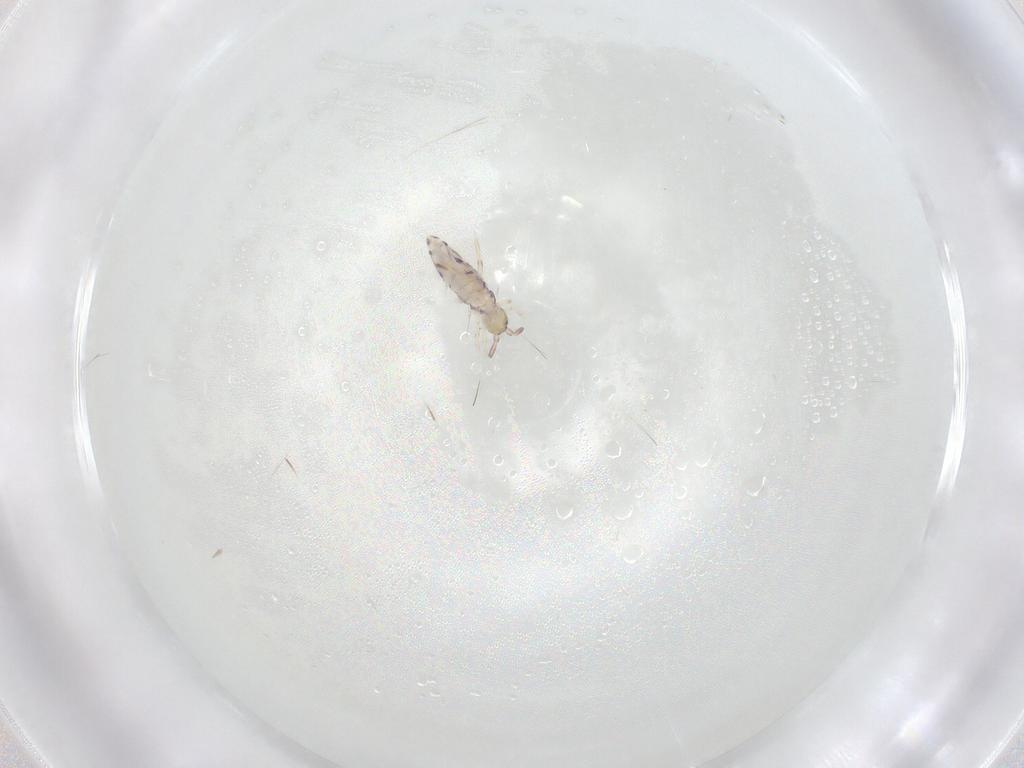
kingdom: Animalia
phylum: Arthropoda
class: Collembola
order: Entomobryomorpha
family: Entomobryidae
